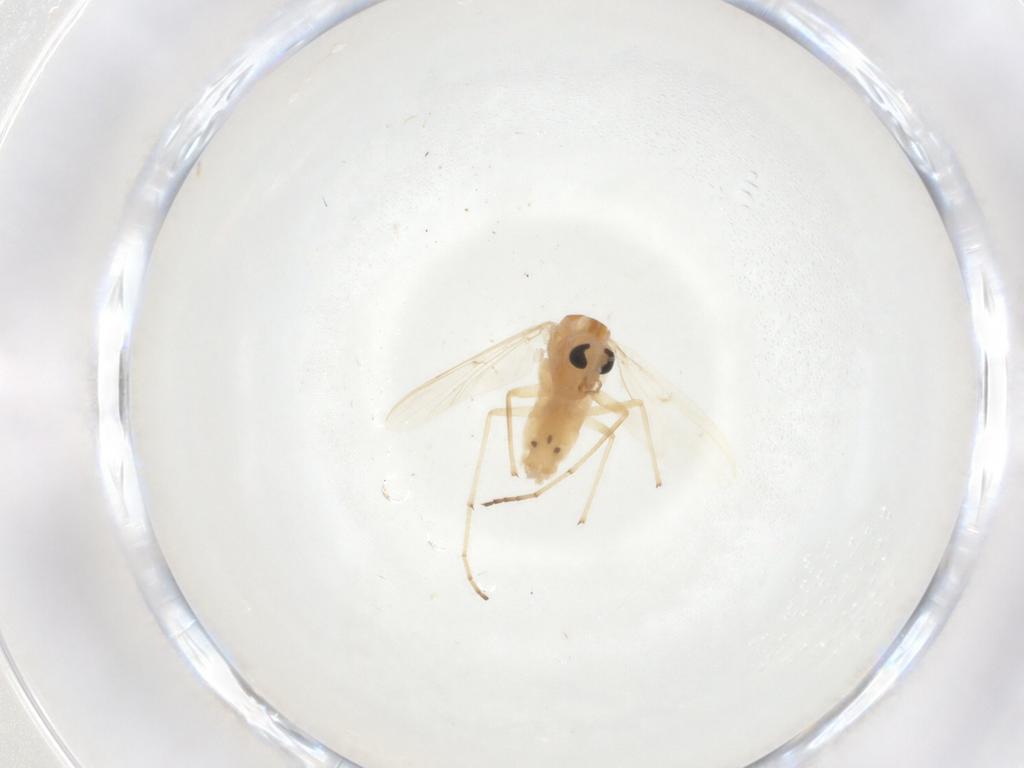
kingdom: Animalia
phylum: Arthropoda
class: Insecta
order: Diptera
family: Chironomidae
